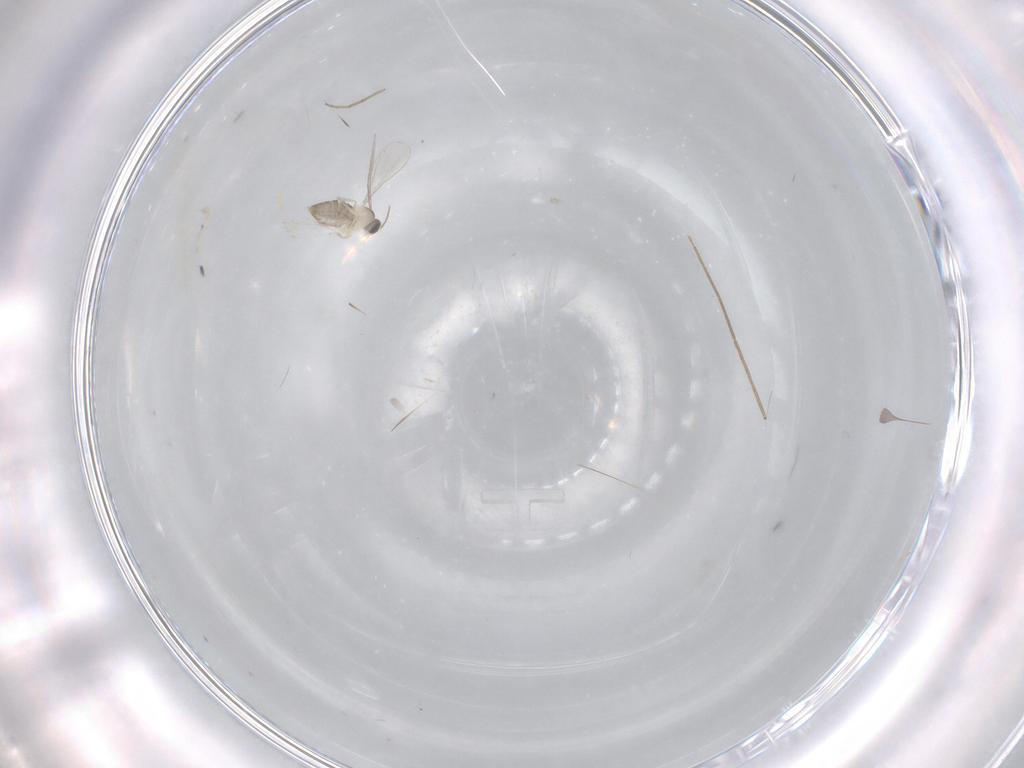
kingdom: Animalia
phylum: Arthropoda
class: Insecta
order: Diptera
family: Cecidomyiidae
